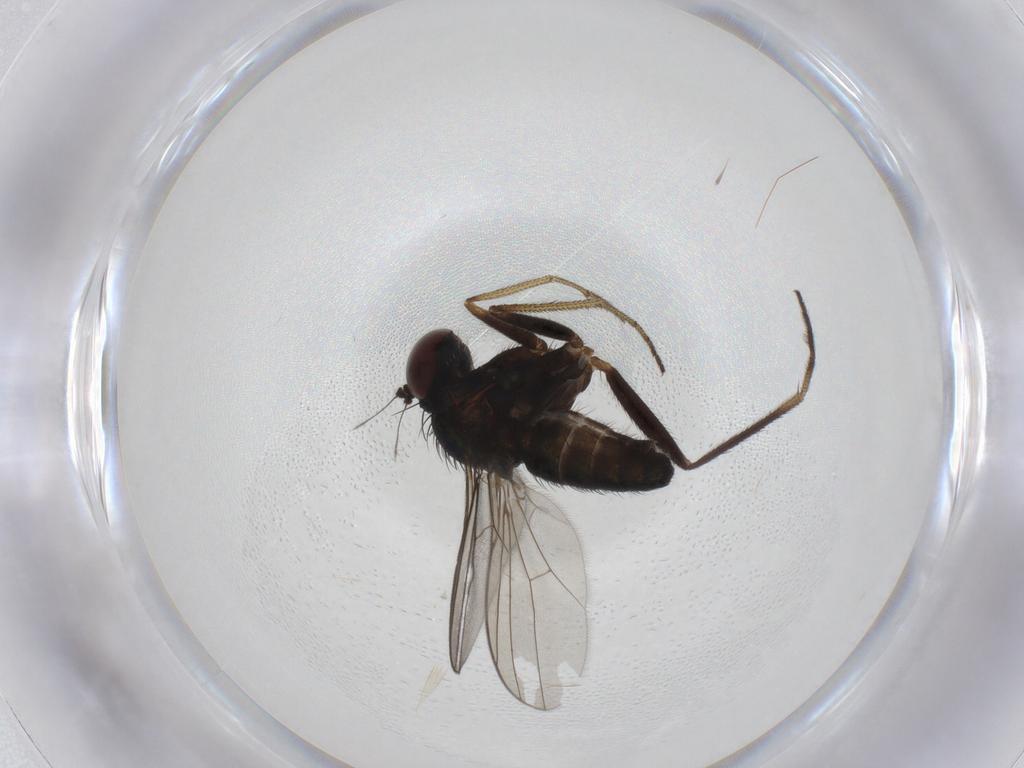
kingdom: Animalia
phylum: Arthropoda
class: Insecta
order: Diptera
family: Dolichopodidae
